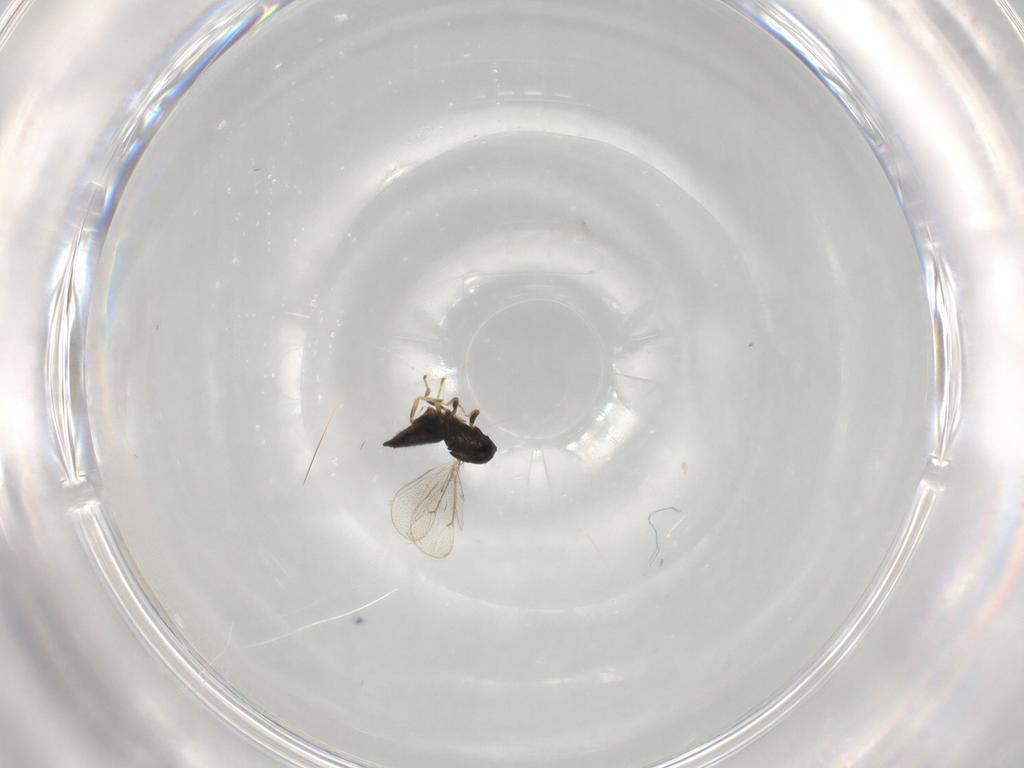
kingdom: Animalia
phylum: Arthropoda
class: Insecta
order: Hymenoptera
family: Eulophidae
